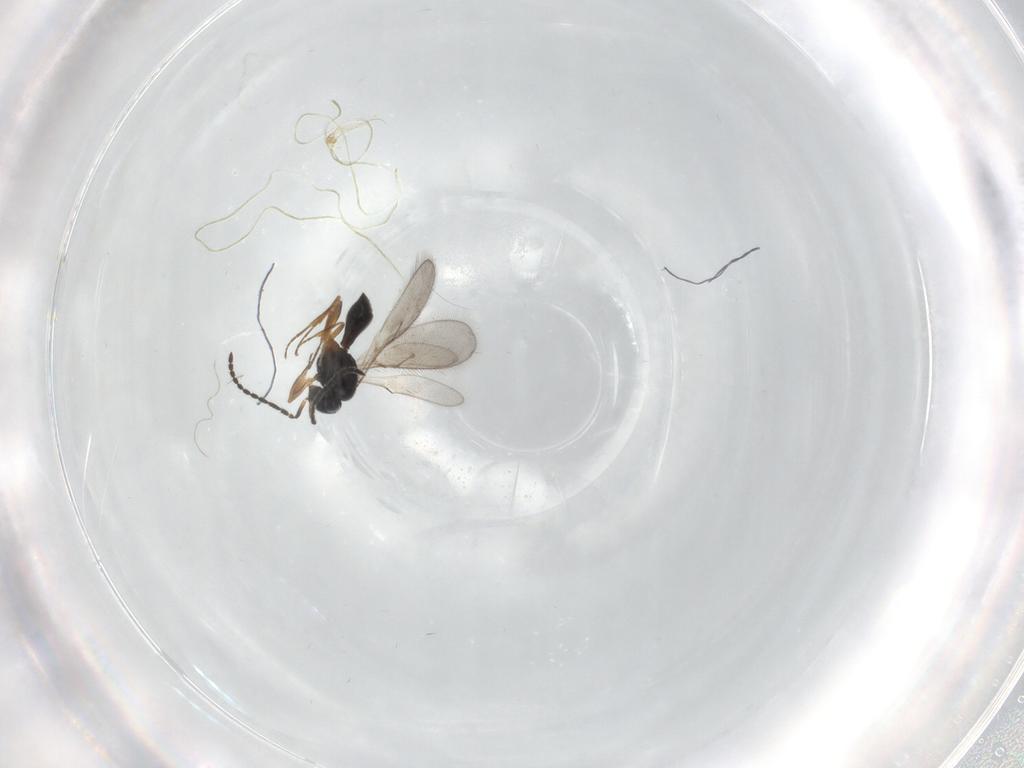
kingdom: Animalia
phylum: Arthropoda
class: Insecta
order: Hymenoptera
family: Scelionidae
